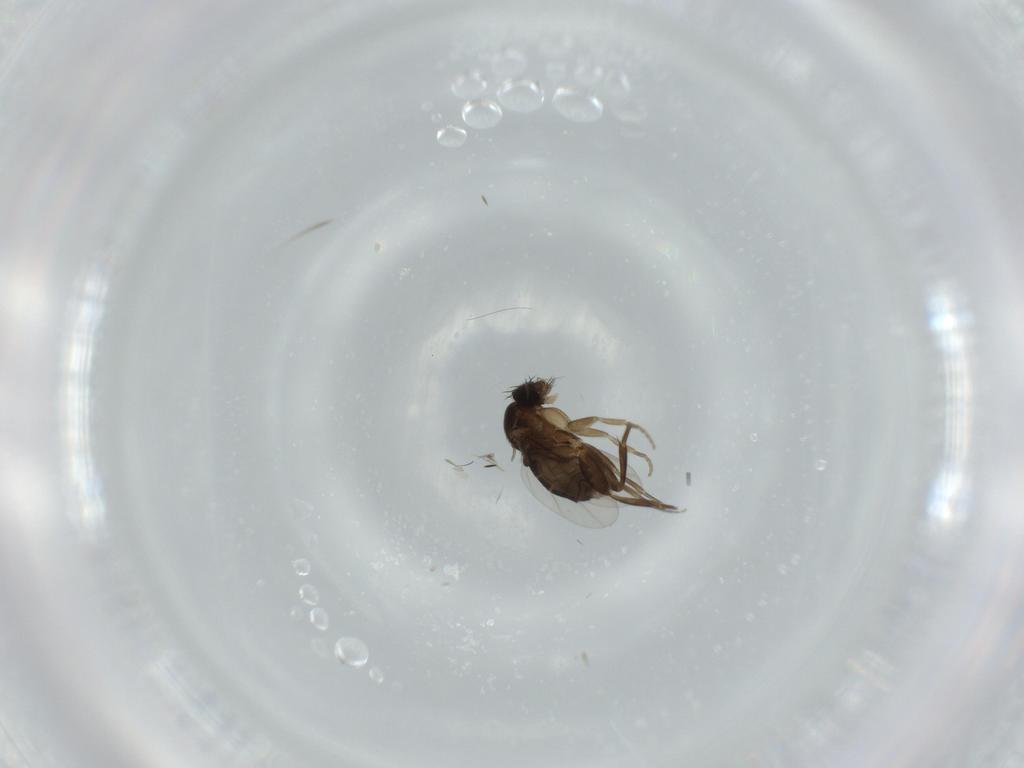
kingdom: Animalia
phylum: Arthropoda
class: Insecta
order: Diptera
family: Phoridae
